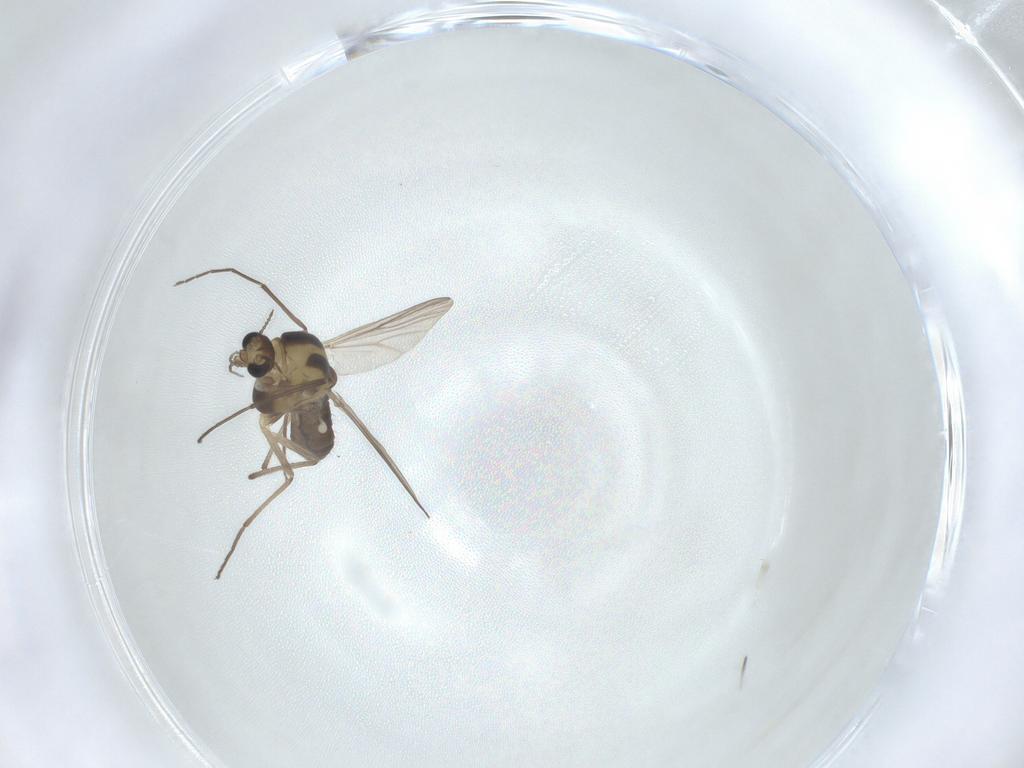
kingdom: Animalia
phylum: Arthropoda
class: Insecta
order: Diptera
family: Chironomidae
